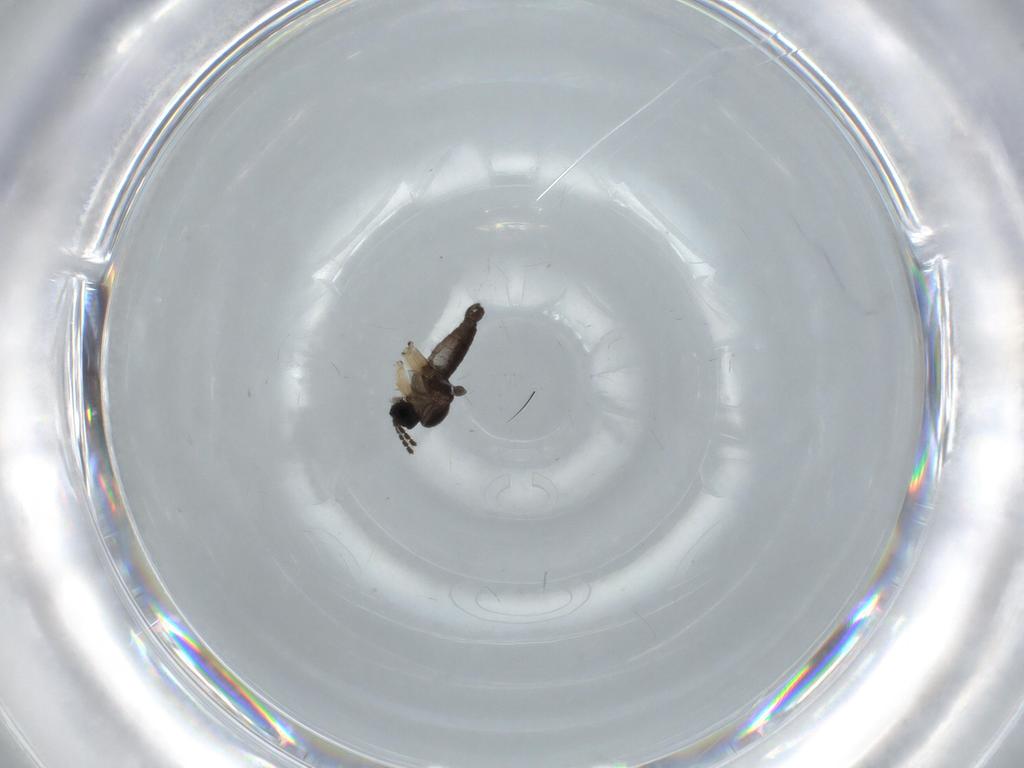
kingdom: Animalia
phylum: Arthropoda
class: Insecta
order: Diptera
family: Sciaridae
